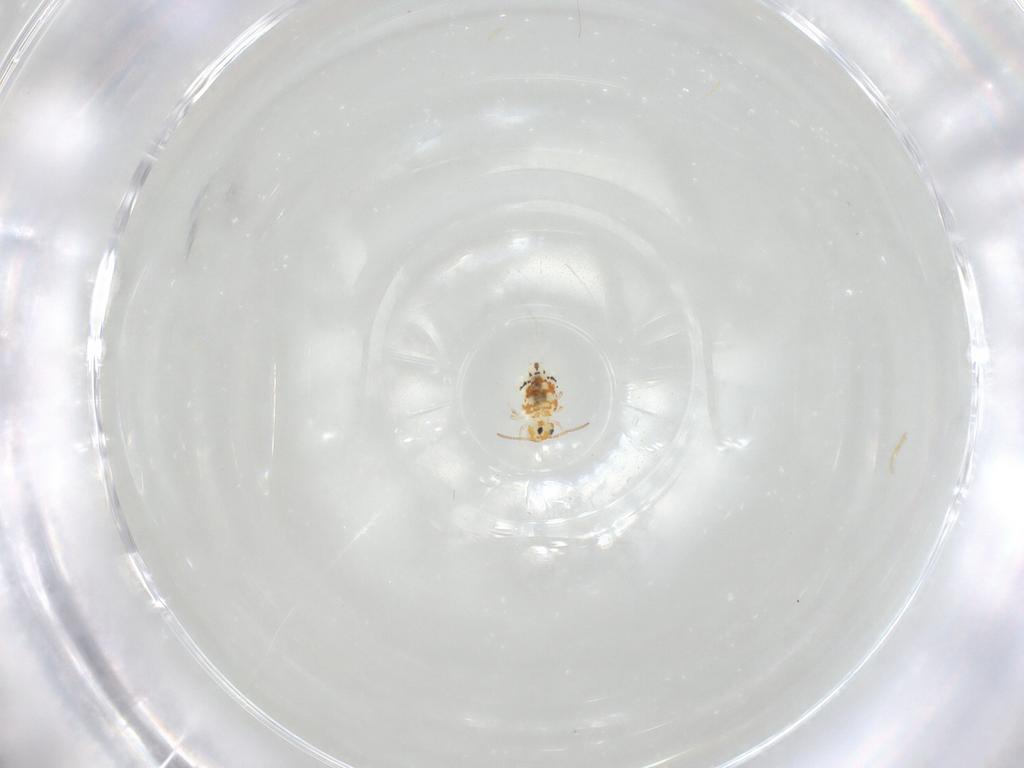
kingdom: Animalia
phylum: Arthropoda
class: Collembola
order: Symphypleona
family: Bourletiellidae
